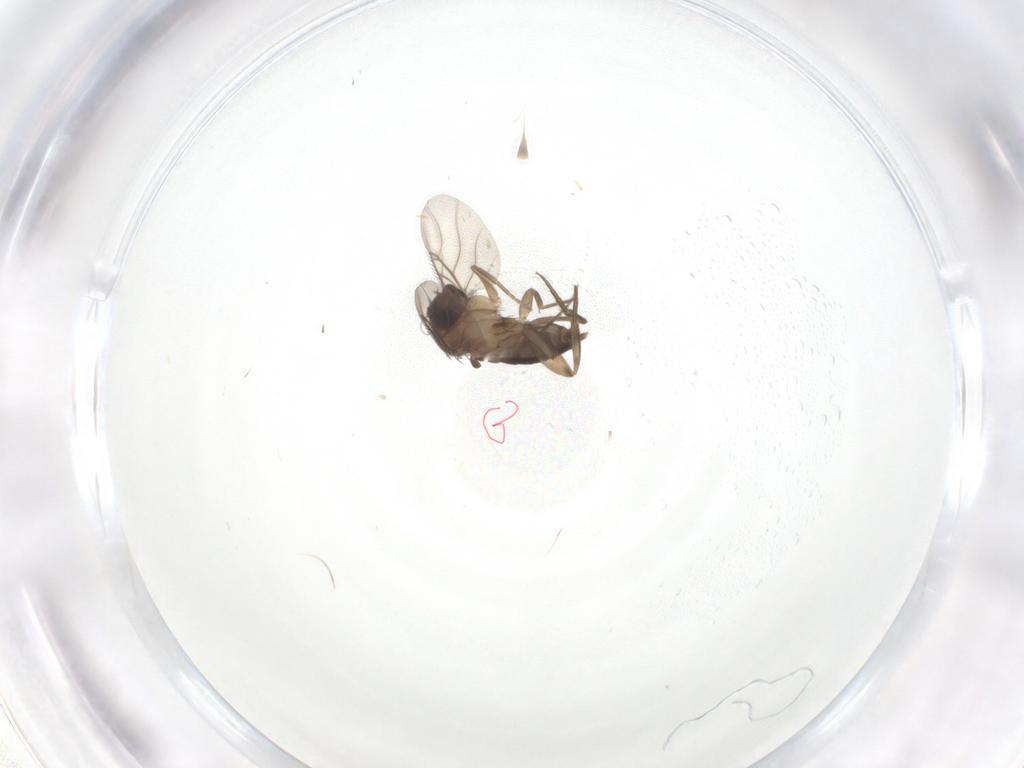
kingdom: Animalia
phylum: Arthropoda
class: Insecta
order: Diptera
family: Phoridae
